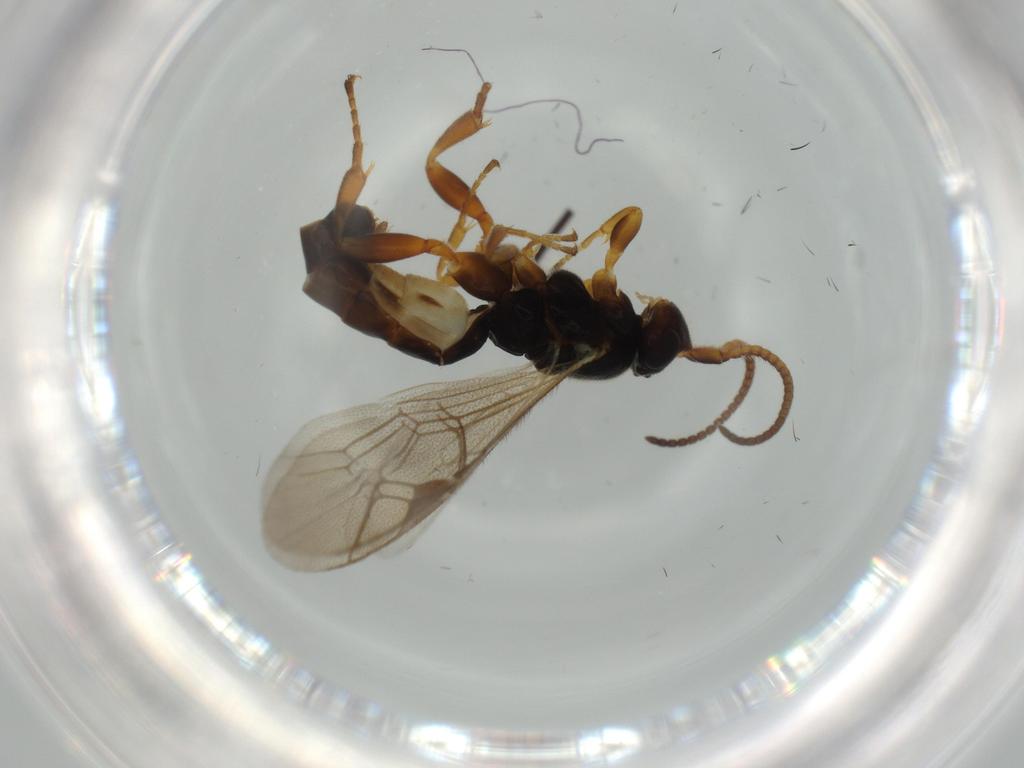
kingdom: Animalia
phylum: Arthropoda
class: Insecta
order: Hymenoptera
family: Ichneumonidae
